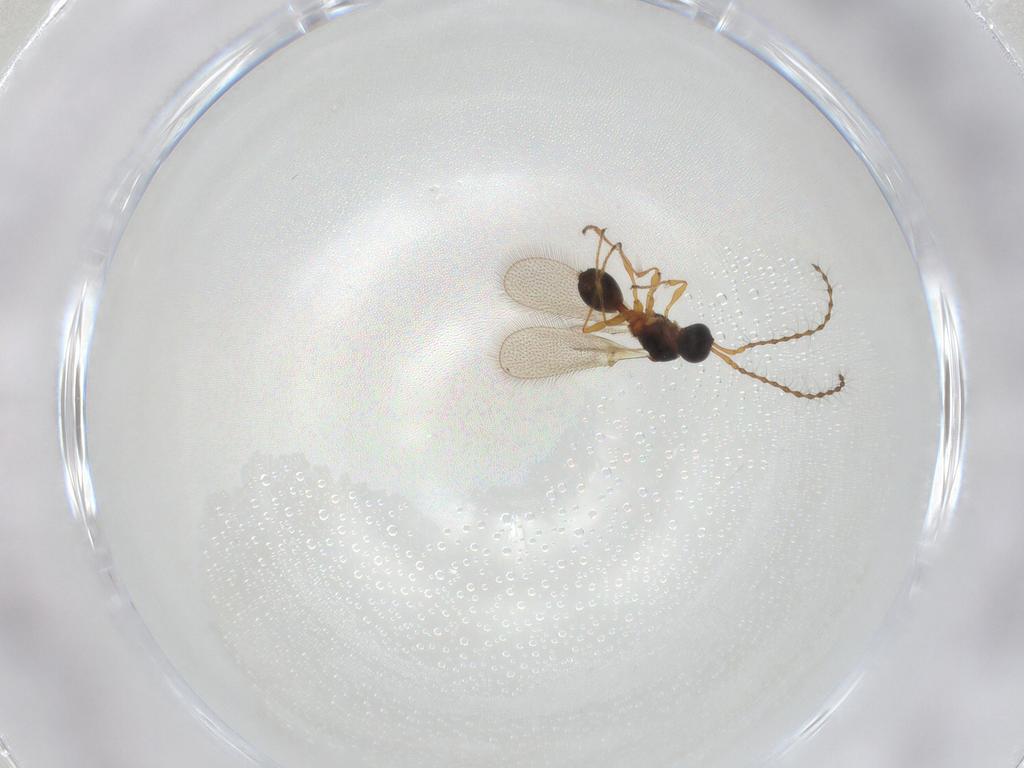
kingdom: Animalia
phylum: Arthropoda
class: Insecta
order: Hymenoptera
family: Diapriidae
